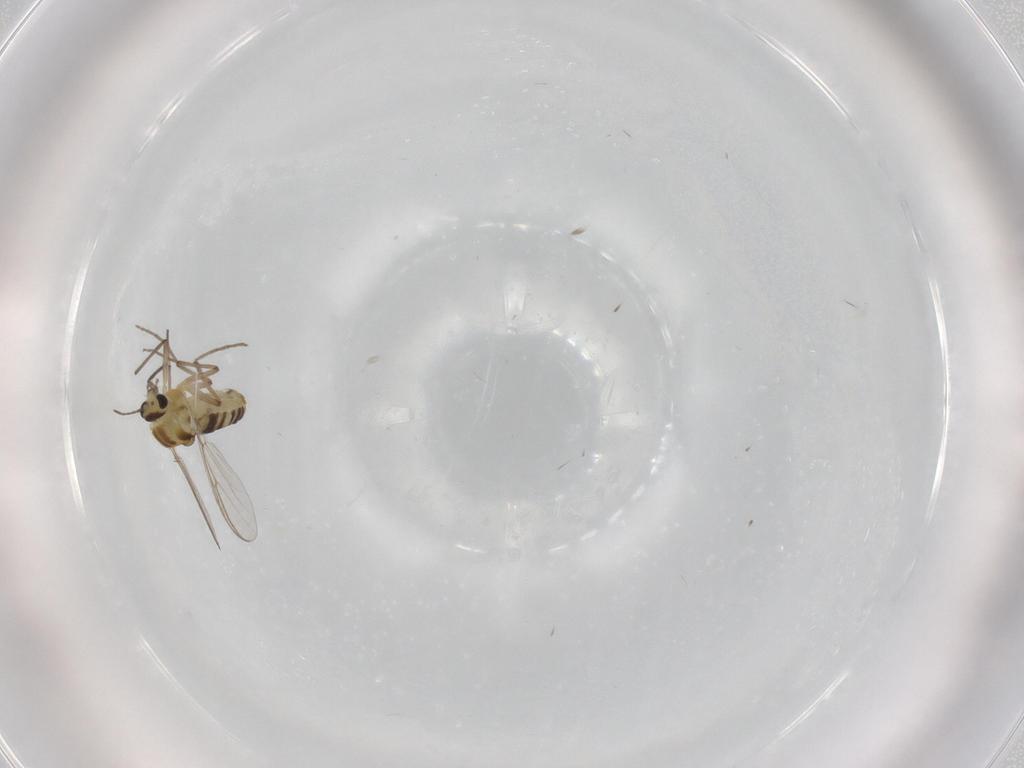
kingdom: Animalia
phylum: Arthropoda
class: Insecta
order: Diptera
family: Chironomidae
